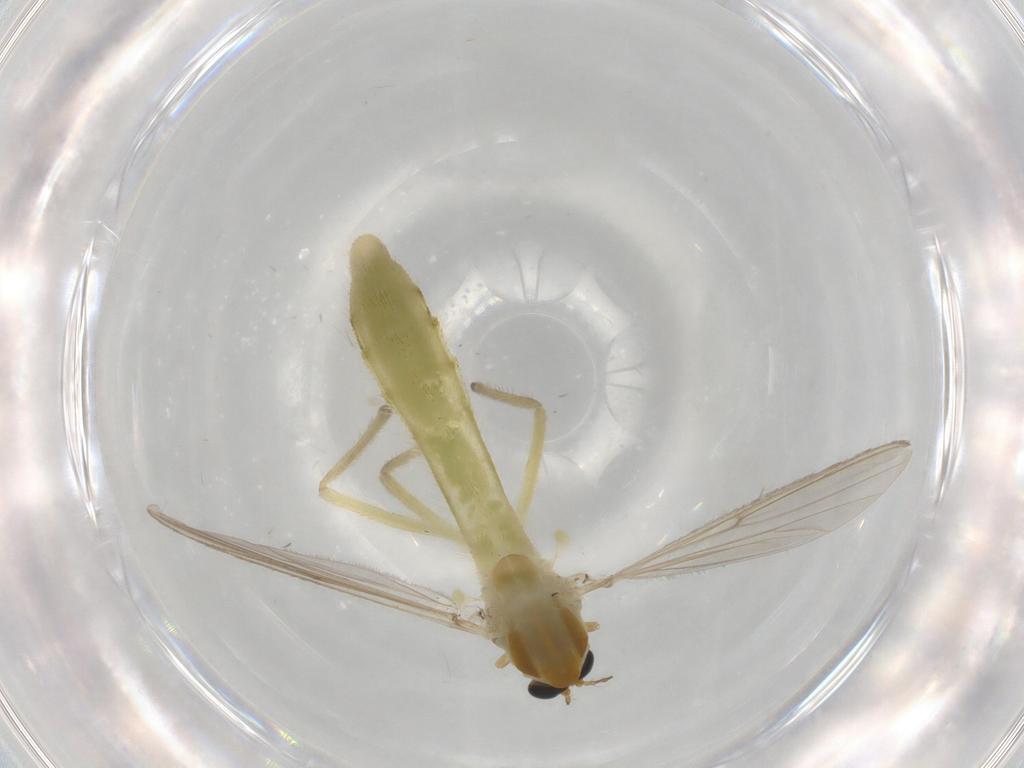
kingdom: Animalia
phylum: Arthropoda
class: Insecta
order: Diptera
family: Chironomidae
